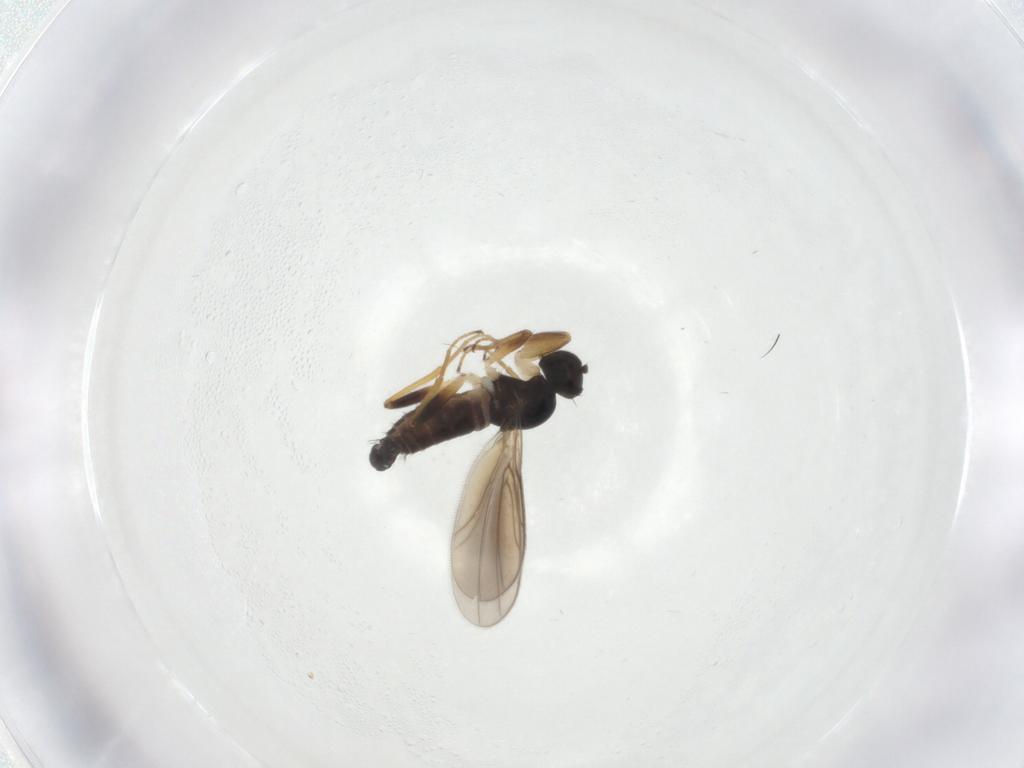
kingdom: Animalia
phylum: Arthropoda
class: Insecta
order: Diptera
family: Hybotidae
